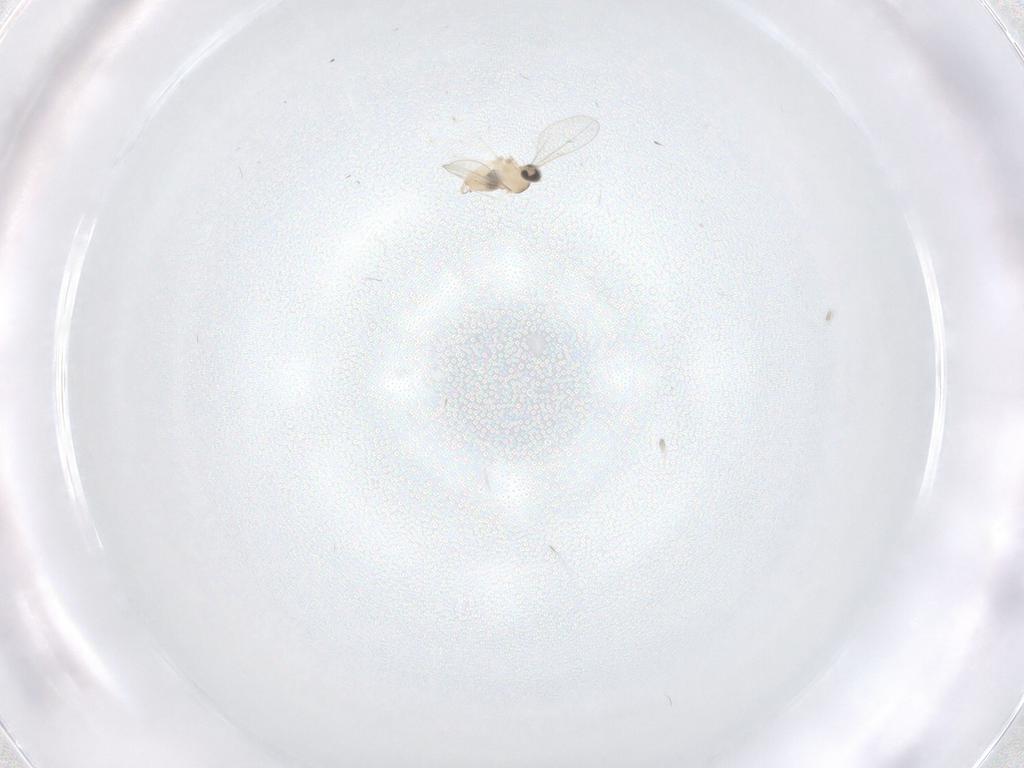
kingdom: Animalia
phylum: Arthropoda
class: Insecta
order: Diptera
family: Cecidomyiidae
